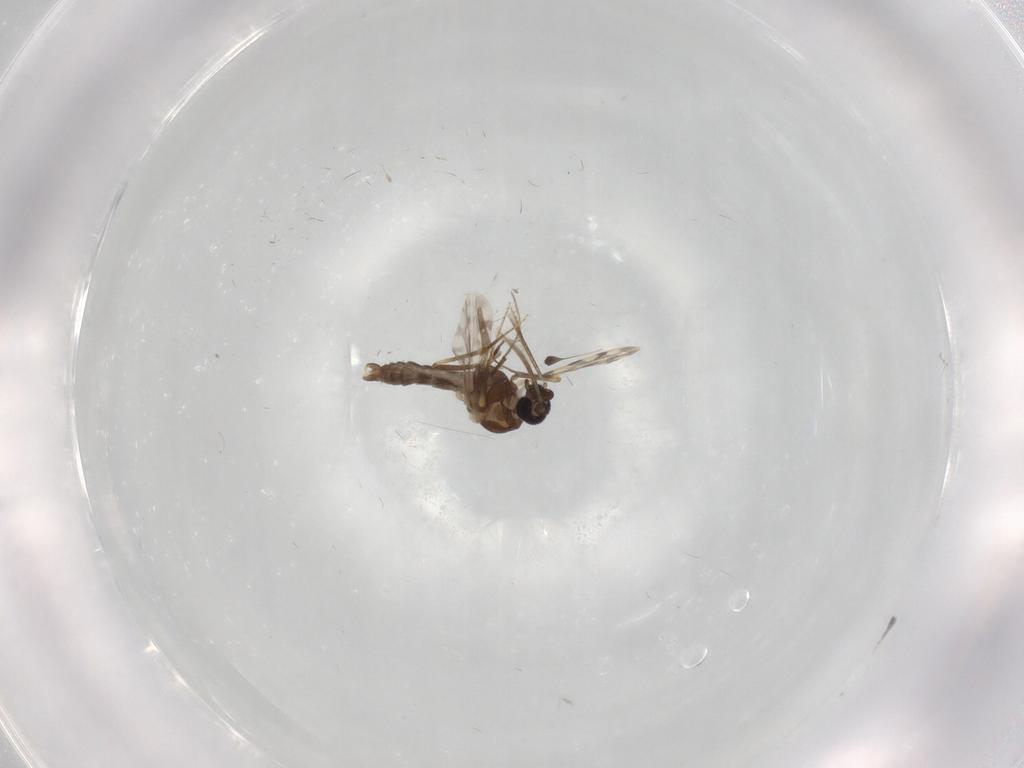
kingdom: Animalia
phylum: Arthropoda
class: Insecta
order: Diptera
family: Ceratopogonidae
